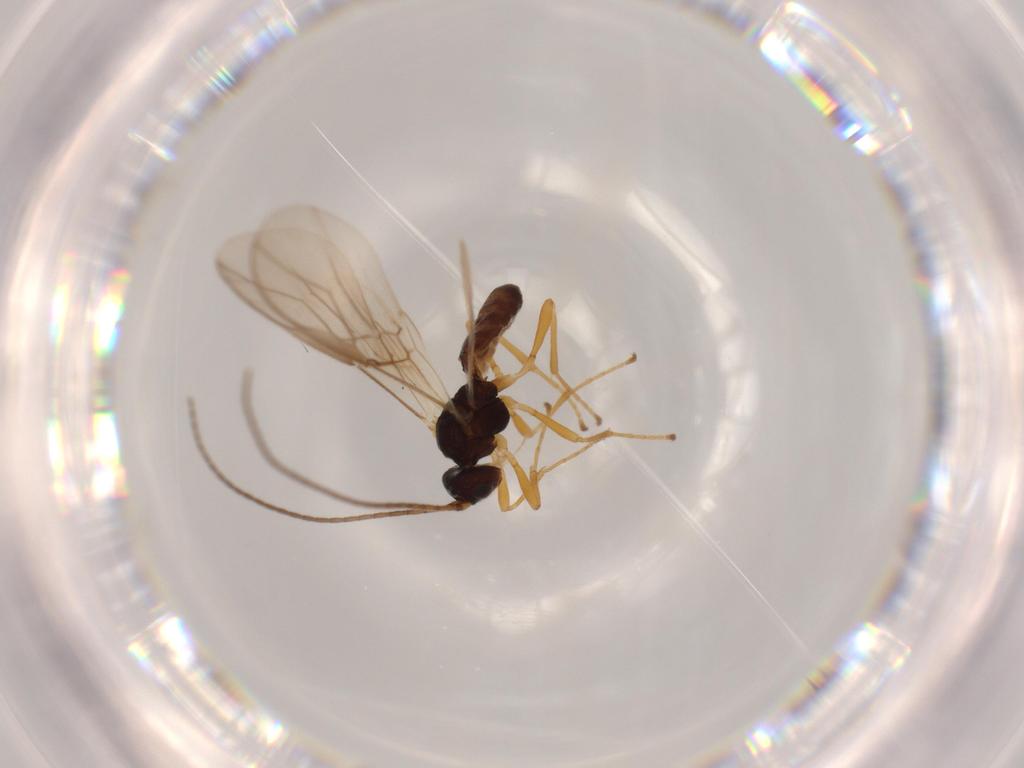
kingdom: Animalia
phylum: Arthropoda
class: Insecta
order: Hymenoptera
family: Braconidae
